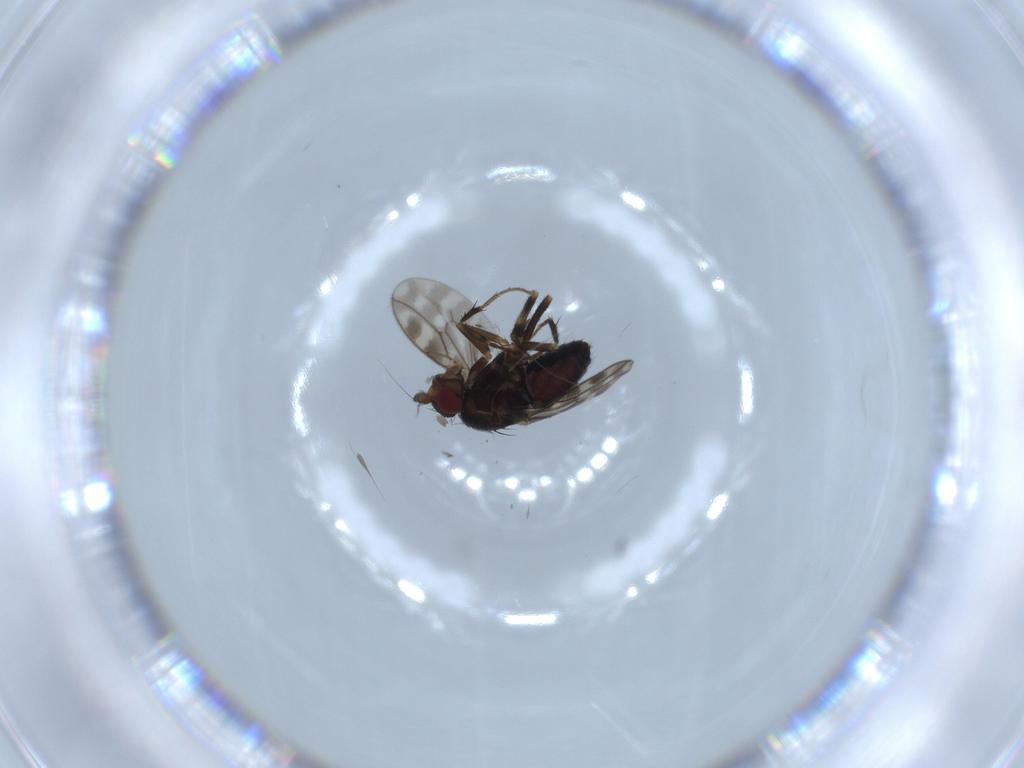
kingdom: Animalia
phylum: Arthropoda
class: Insecta
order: Diptera
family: Sphaeroceridae
